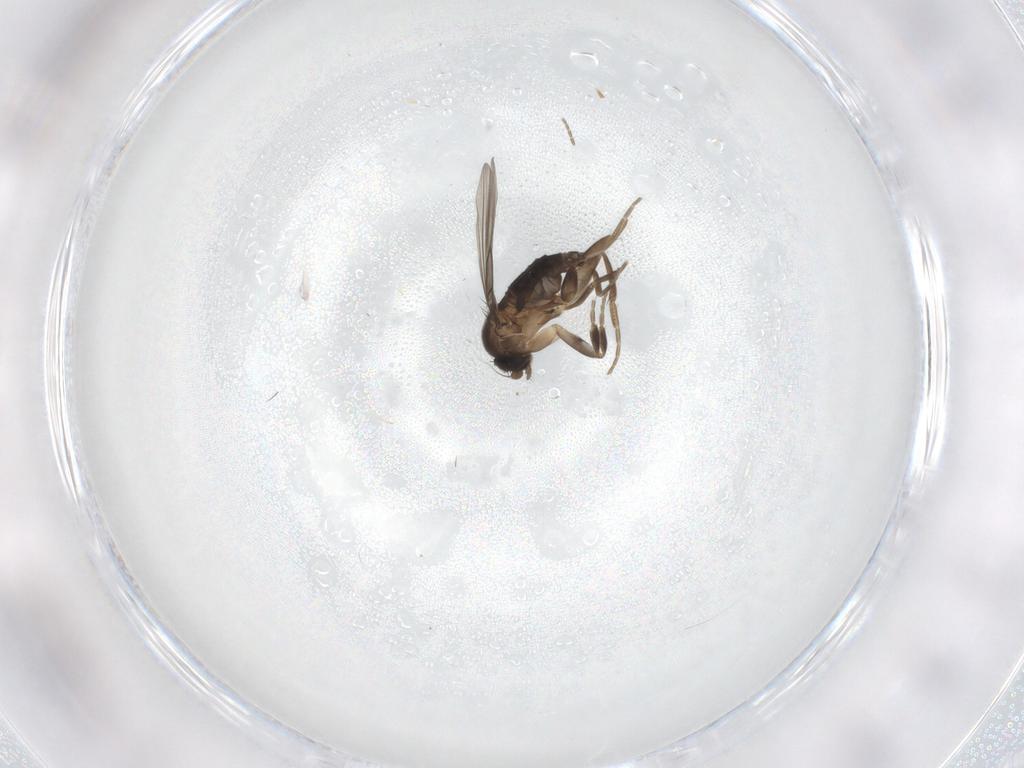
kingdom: Animalia
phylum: Arthropoda
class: Insecta
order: Diptera
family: Phoridae
